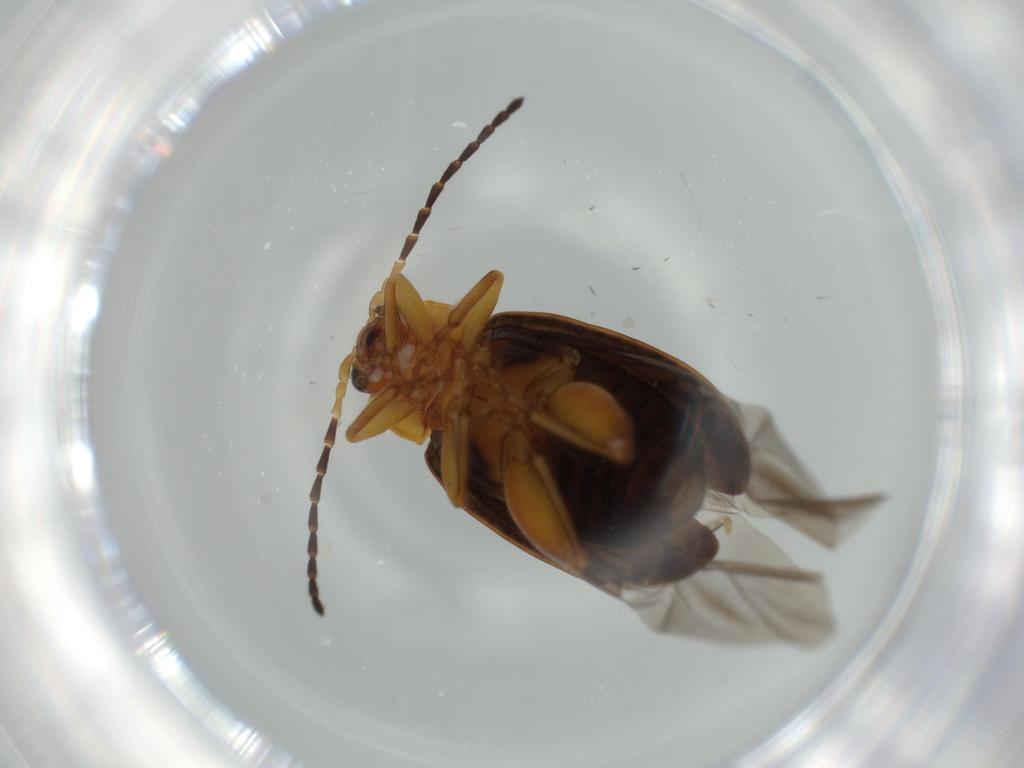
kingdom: Animalia
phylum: Arthropoda
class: Insecta
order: Coleoptera
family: Corylophidae
